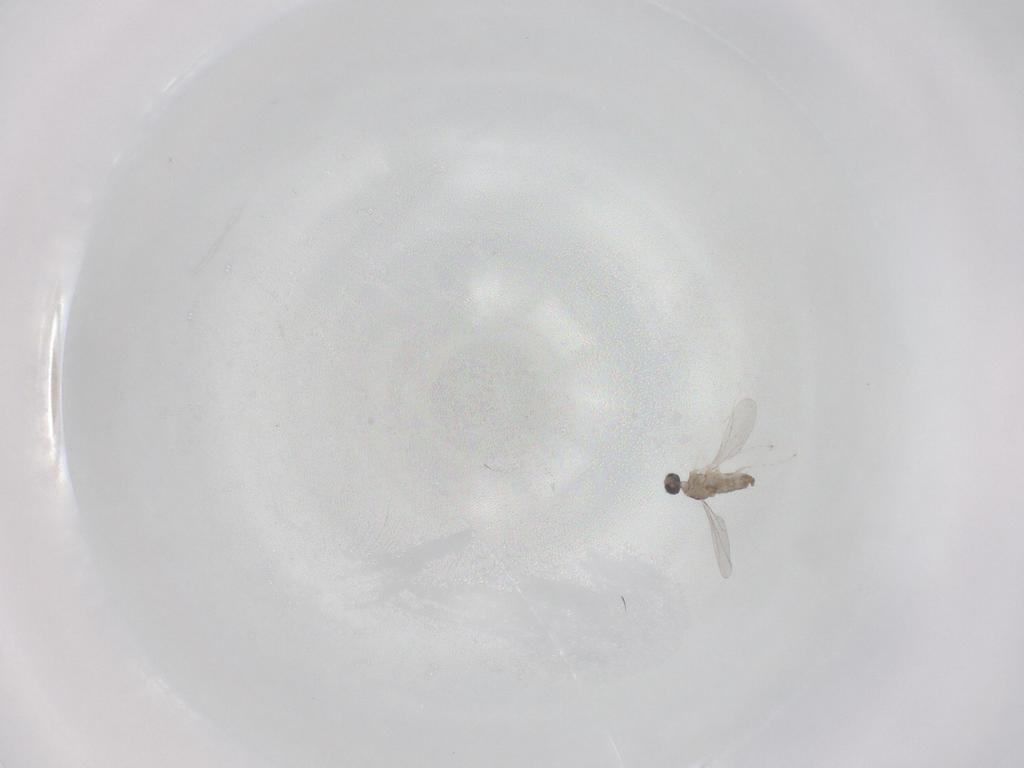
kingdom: Animalia
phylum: Arthropoda
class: Insecta
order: Diptera
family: Cecidomyiidae
